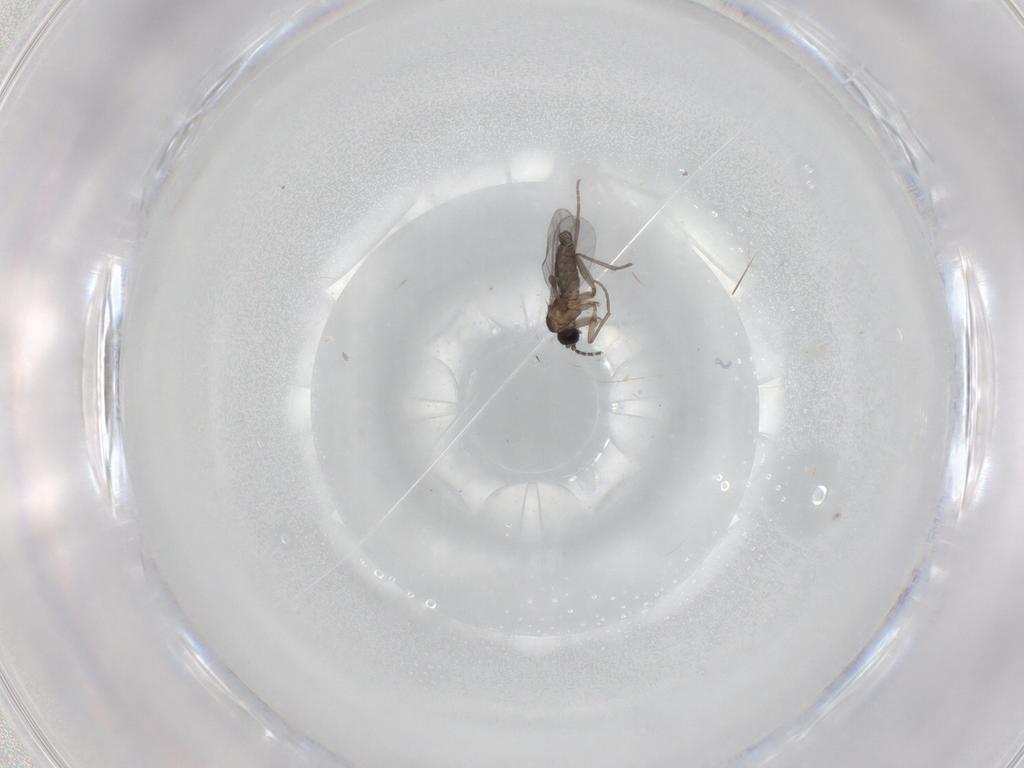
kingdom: Animalia
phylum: Arthropoda
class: Insecta
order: Diptera
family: Sciaridae
